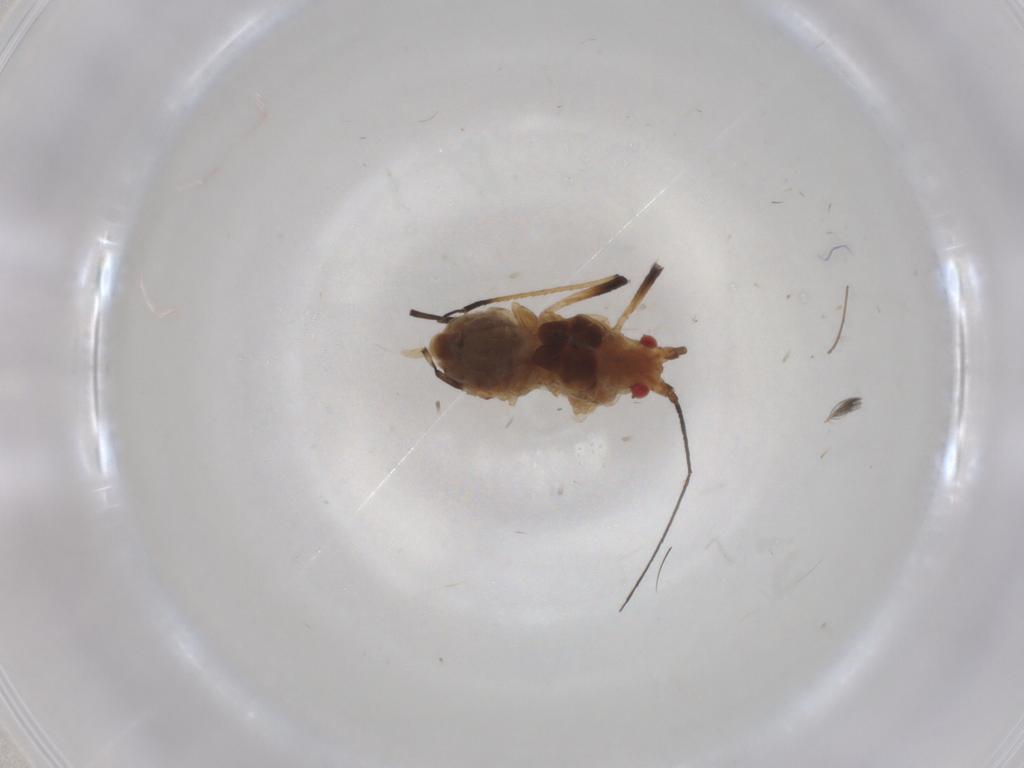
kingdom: Animalia
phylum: Arthropoda
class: Insecta
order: Hemiptera
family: Aphididae
